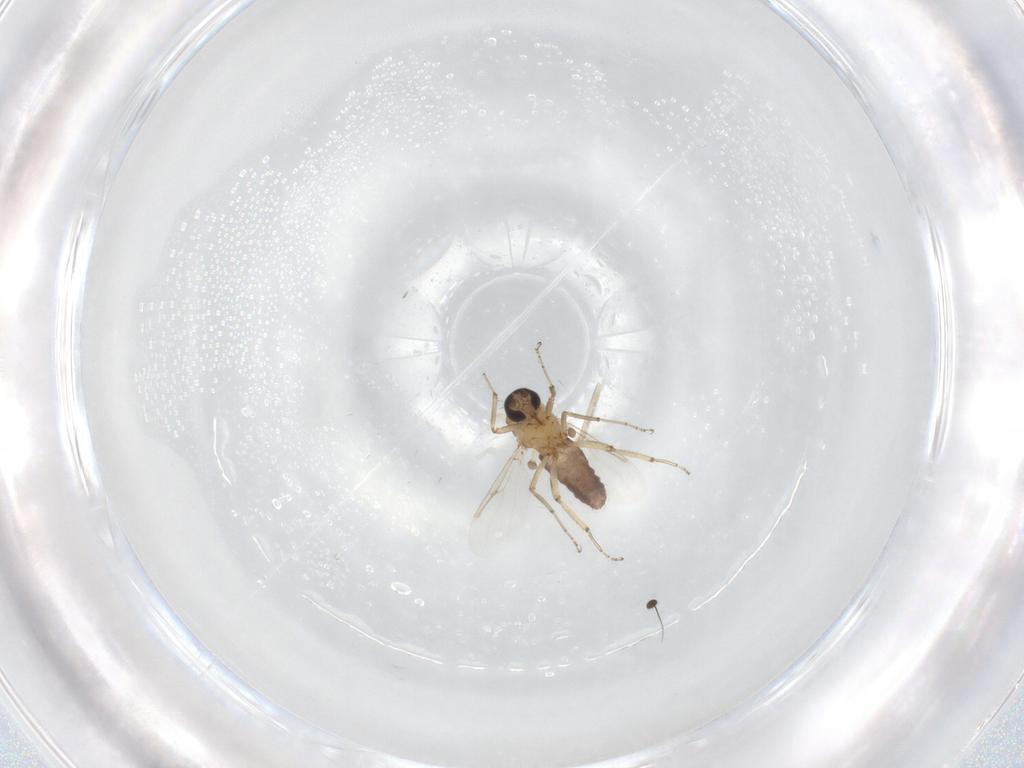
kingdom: Animalia
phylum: Arthropoda
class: Insecta
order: Diptera
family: Ceratopogonidae
